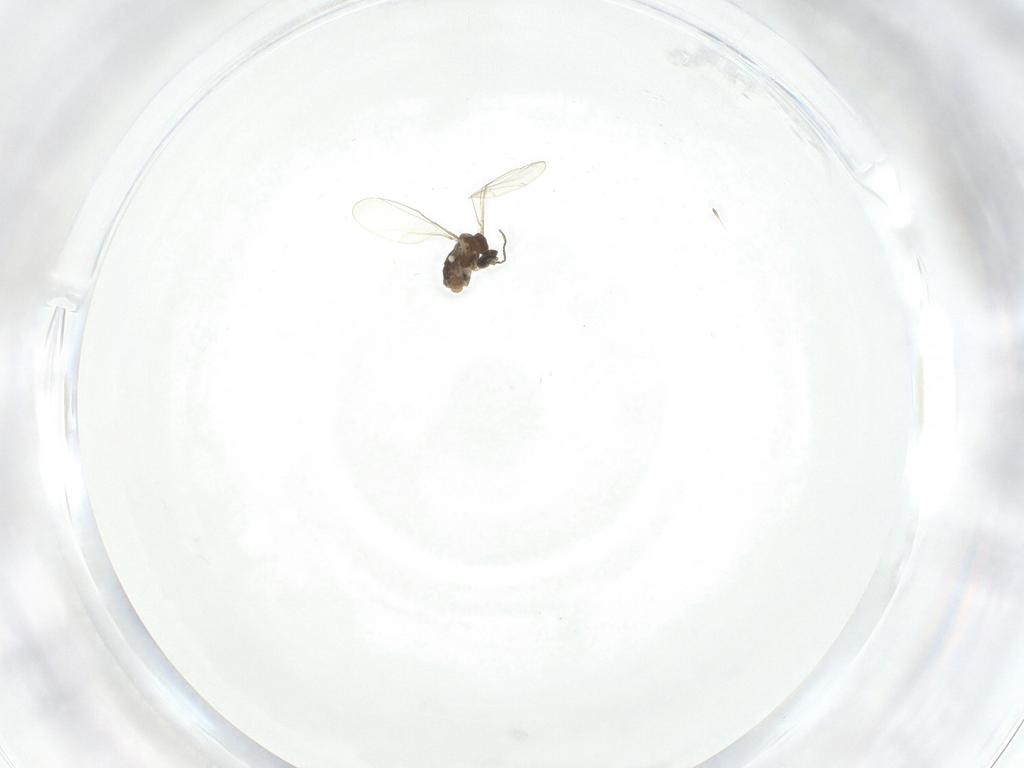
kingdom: Animalia
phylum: Arthropoda
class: Insecta
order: Diptera
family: Cecidomyiidae
